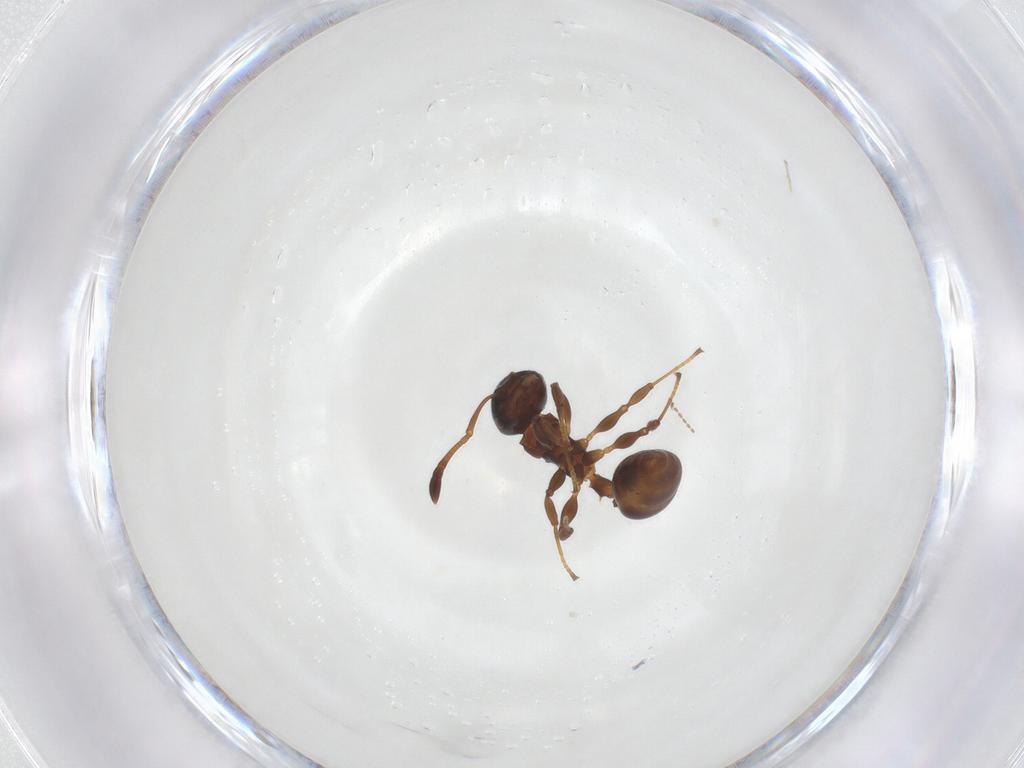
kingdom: Animalia
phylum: Arthropoda
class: Insecta
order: Hymenoptera
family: Formicidae
